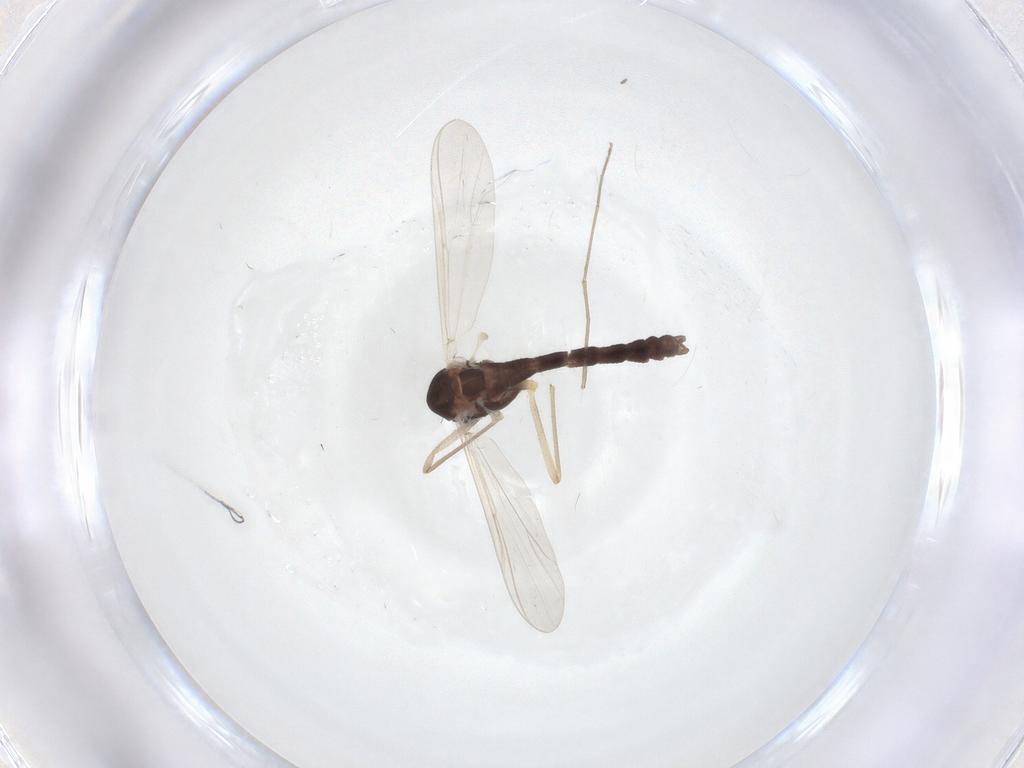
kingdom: Animalia
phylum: Arthropoda
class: Insecta
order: Diptera
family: Chironomidae
